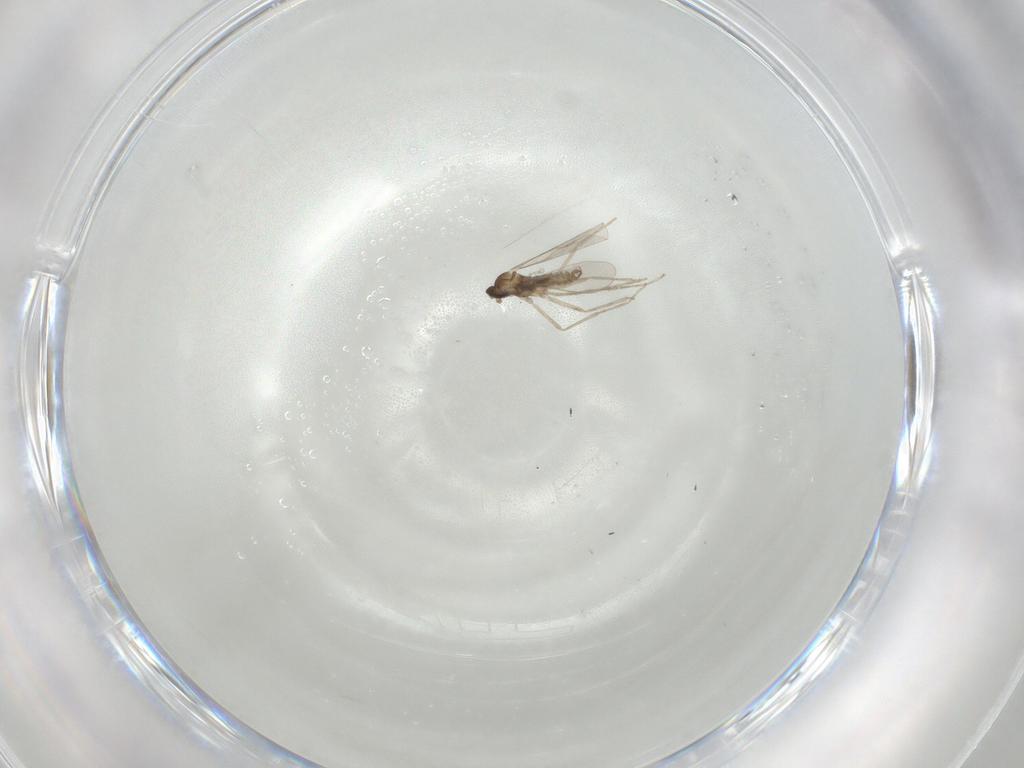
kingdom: Animalia
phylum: Arthropoda
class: Insecta
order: Diptera
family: Cecidomyiidae
